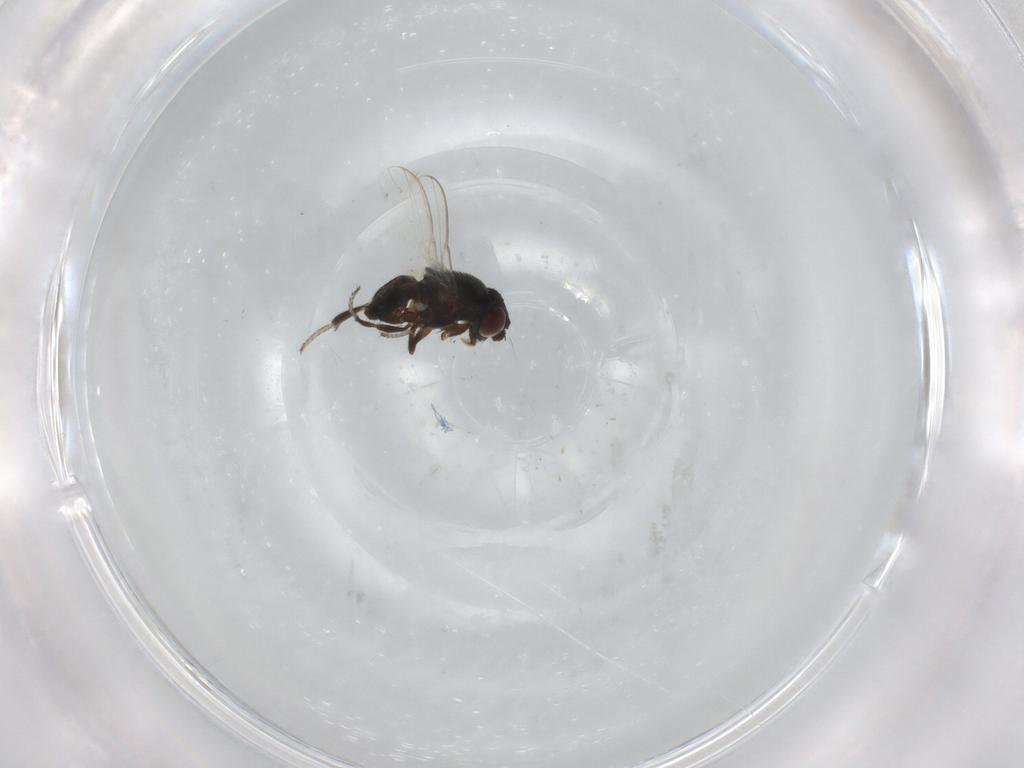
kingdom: Animalia
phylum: Arthropoda
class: Insecta
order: Diptera
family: Milichiidae
